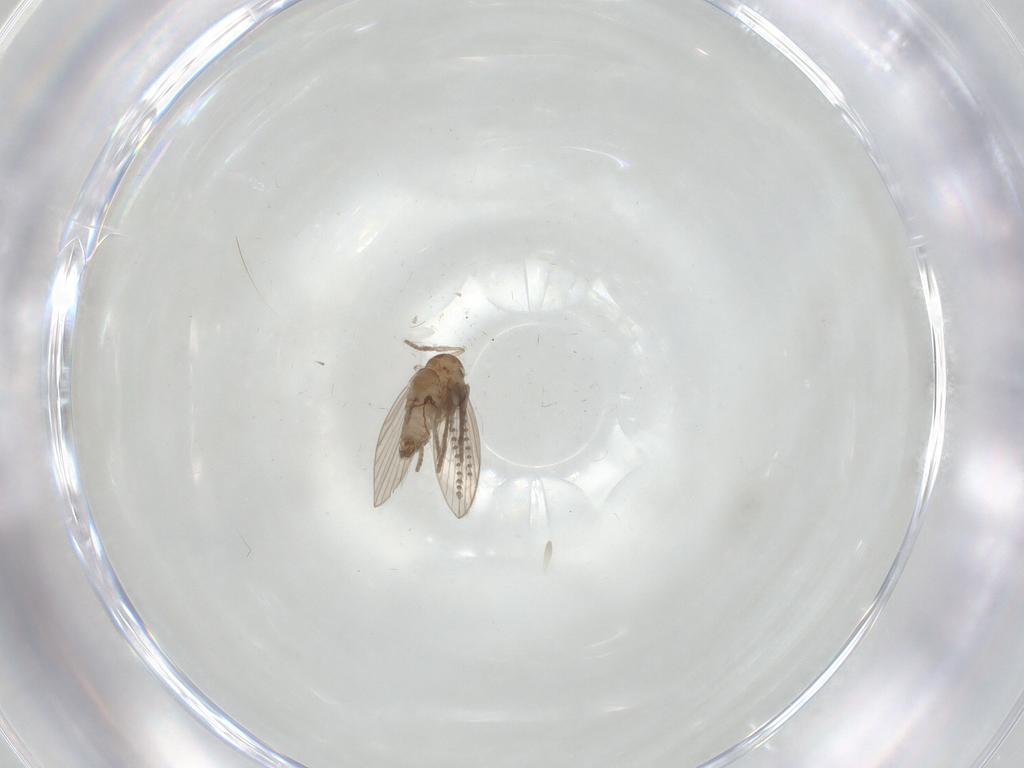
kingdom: Animalia
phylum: Arthropoda
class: Insecta
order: Diptera
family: Psychodidae
